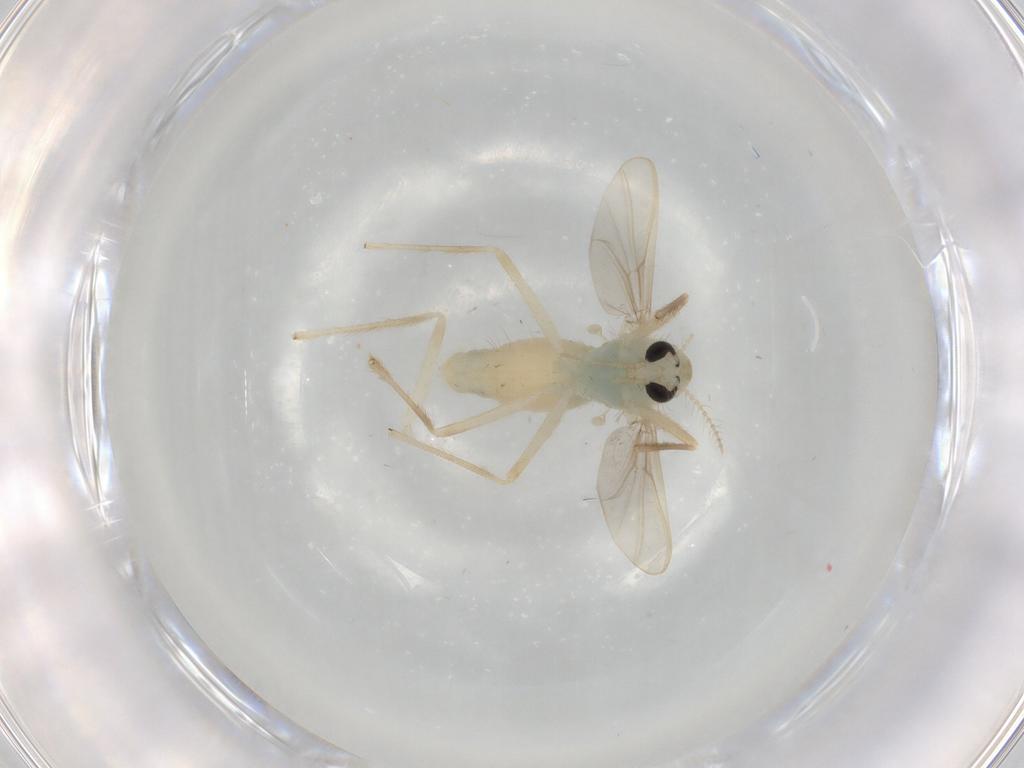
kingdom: Animalia
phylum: Arthropoda
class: Insecta
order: Diptera
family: Chironomidae
